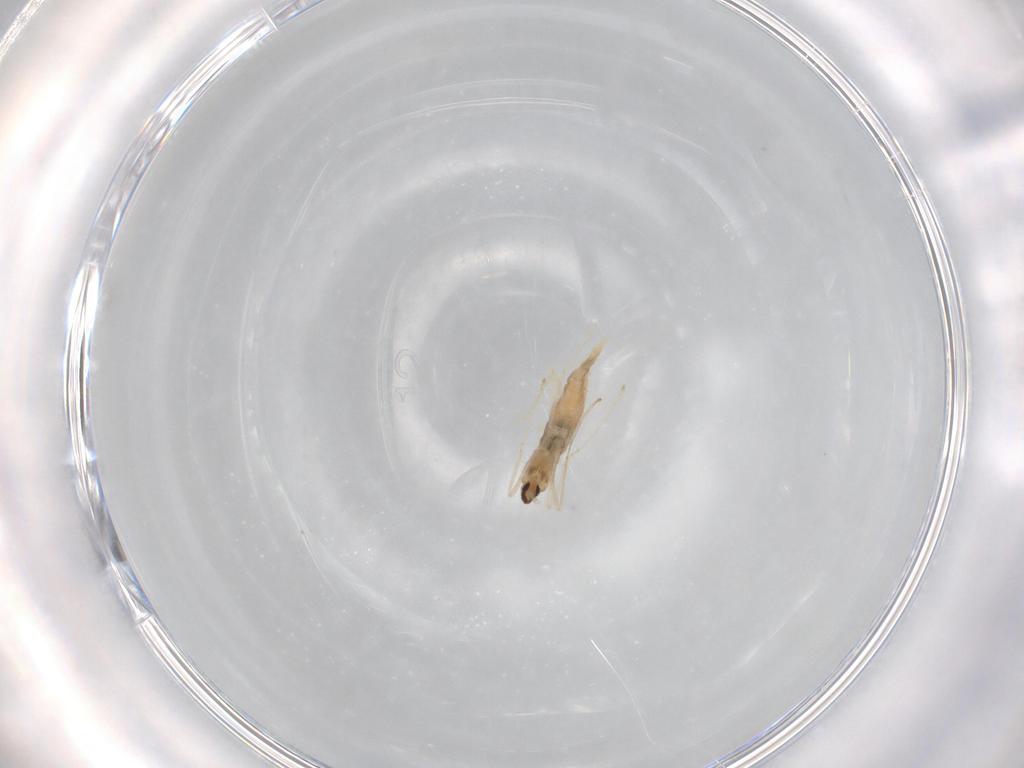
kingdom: Animalia
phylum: Arthropoda
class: Insecta
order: Diptera
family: Cecidomyiidae
